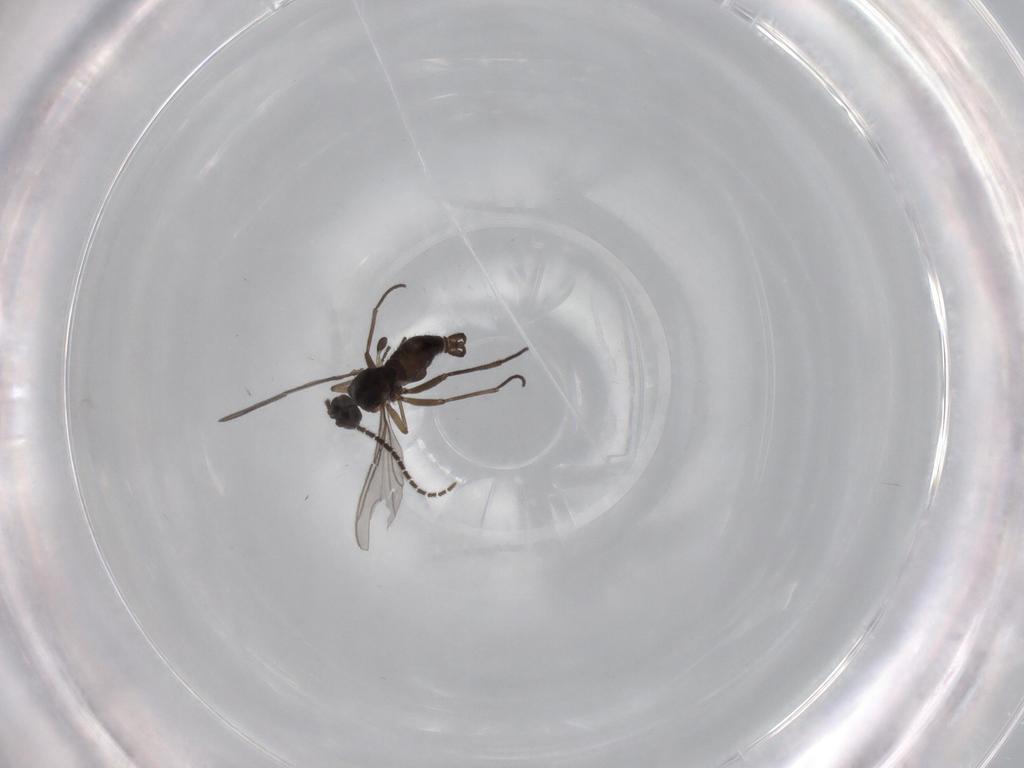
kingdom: Animalia
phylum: Arthropoda
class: Insecta
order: Diptera
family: Sciaridae
